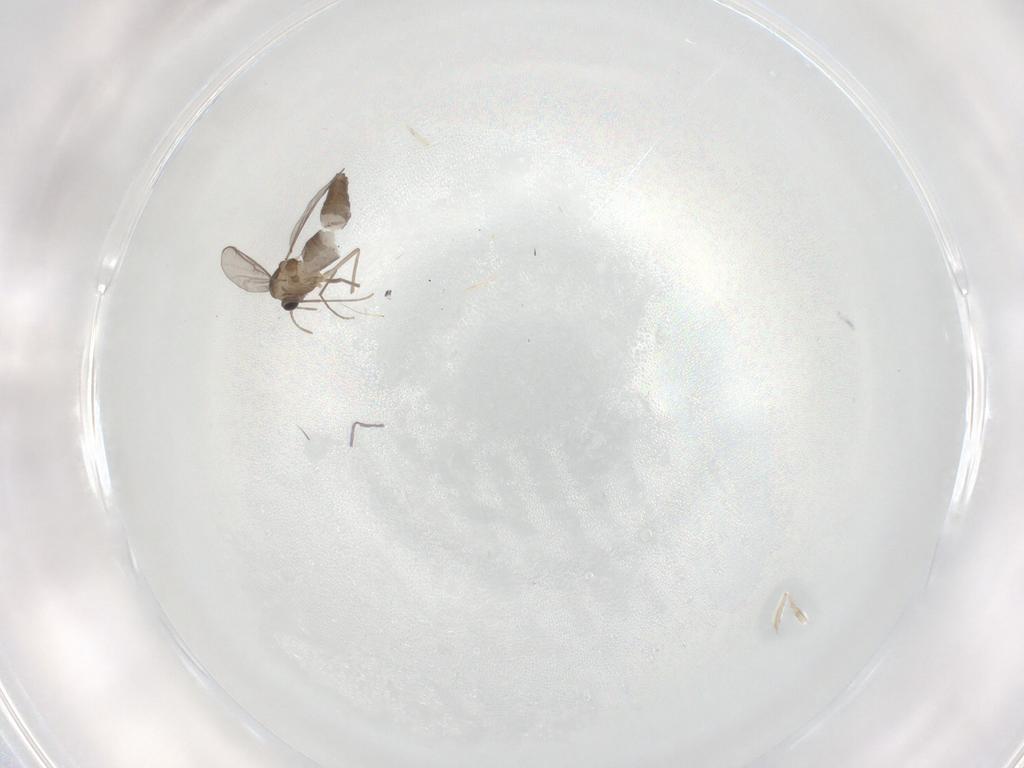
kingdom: Animalia
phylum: Arthropoda
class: Insecta
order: Diptera
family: Chironomidae
